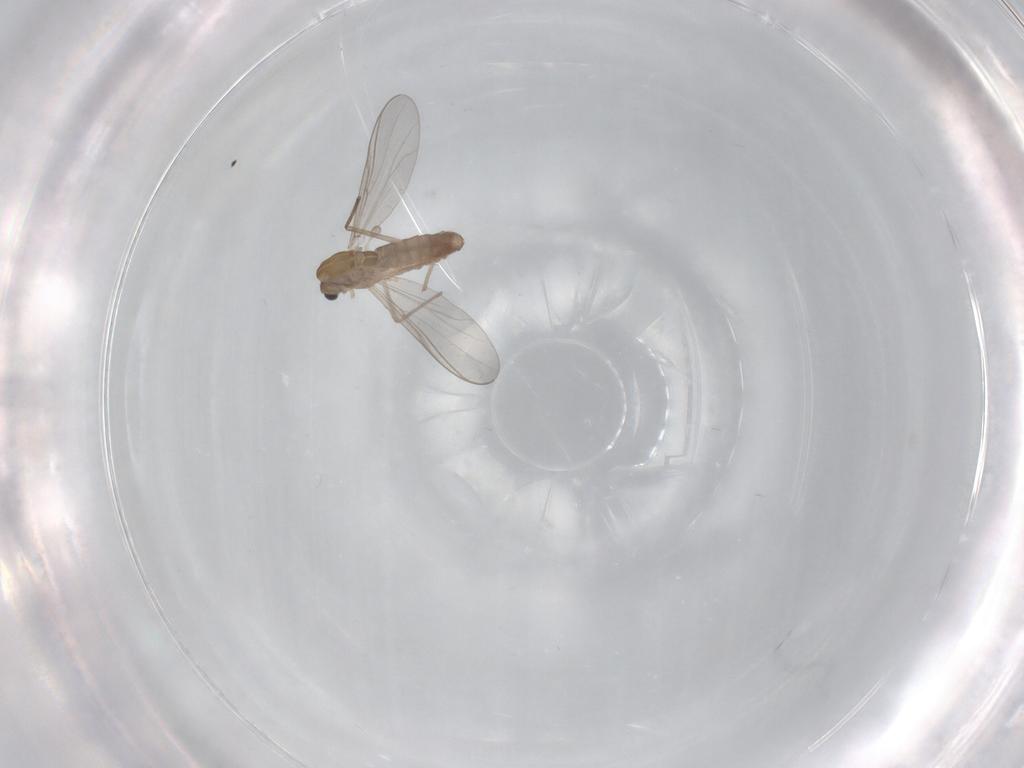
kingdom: Animalia
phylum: Arthropoda
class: Insecta
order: Diptera
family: Chironomidae
